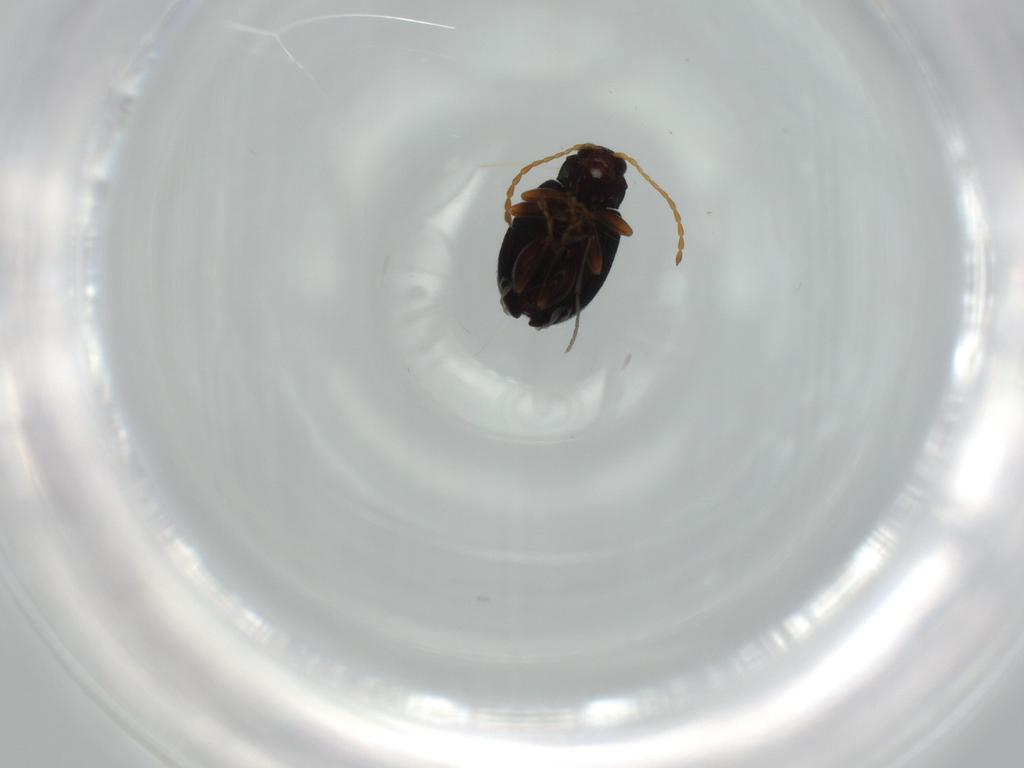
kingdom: Animalia
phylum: Arthropoda
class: Insecta
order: Coleoptera
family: Chrysomelidae
